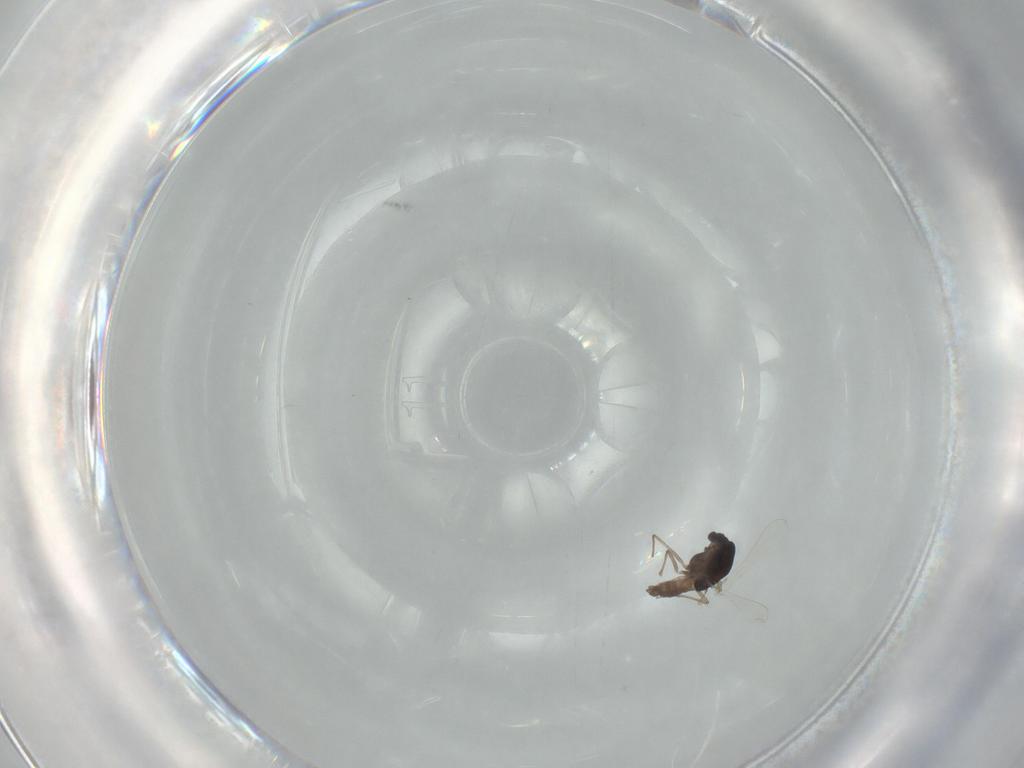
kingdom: Animalia
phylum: Arthropoda
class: Insecta
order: Diptera
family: Chironomidae
